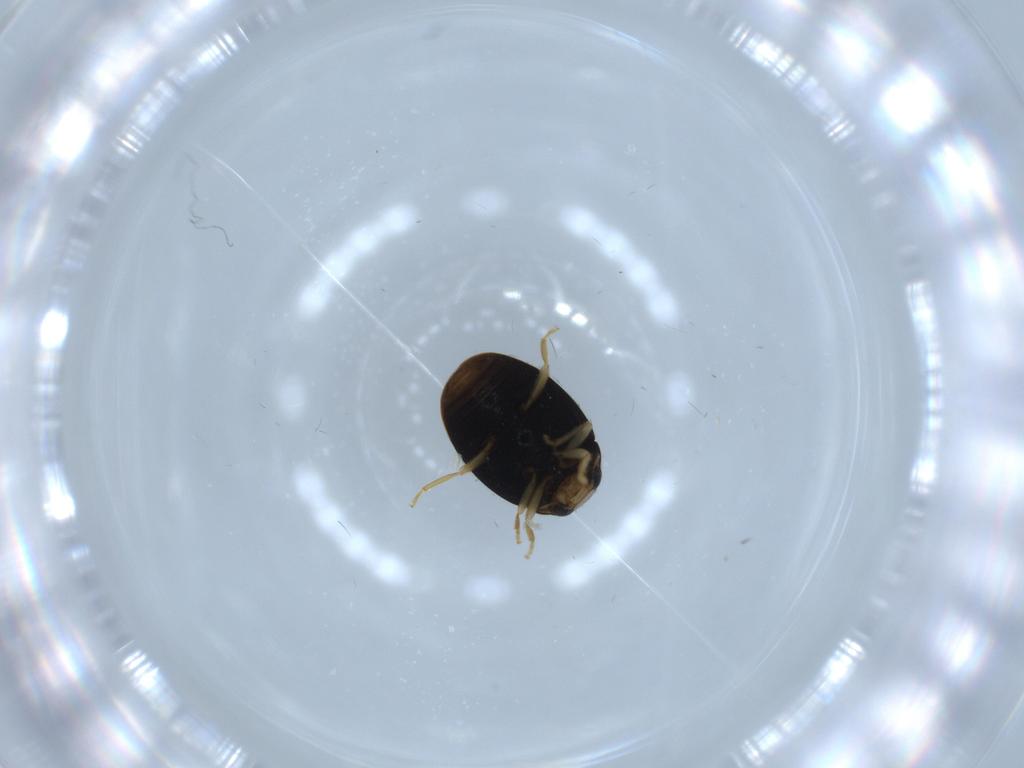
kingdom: Animalia
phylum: Arthropoda
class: Insecta
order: Coleoptera
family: Coccinellidae
